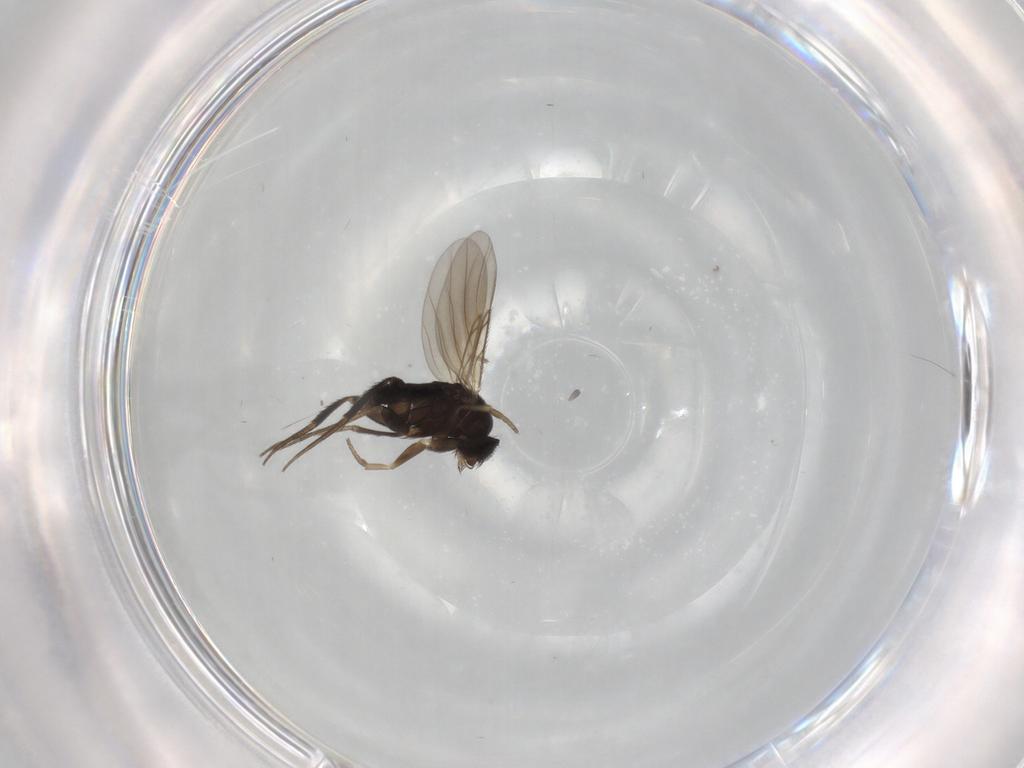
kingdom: Animalia
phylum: Arthropoda
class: Insecta
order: Diptera
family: Phoridae
